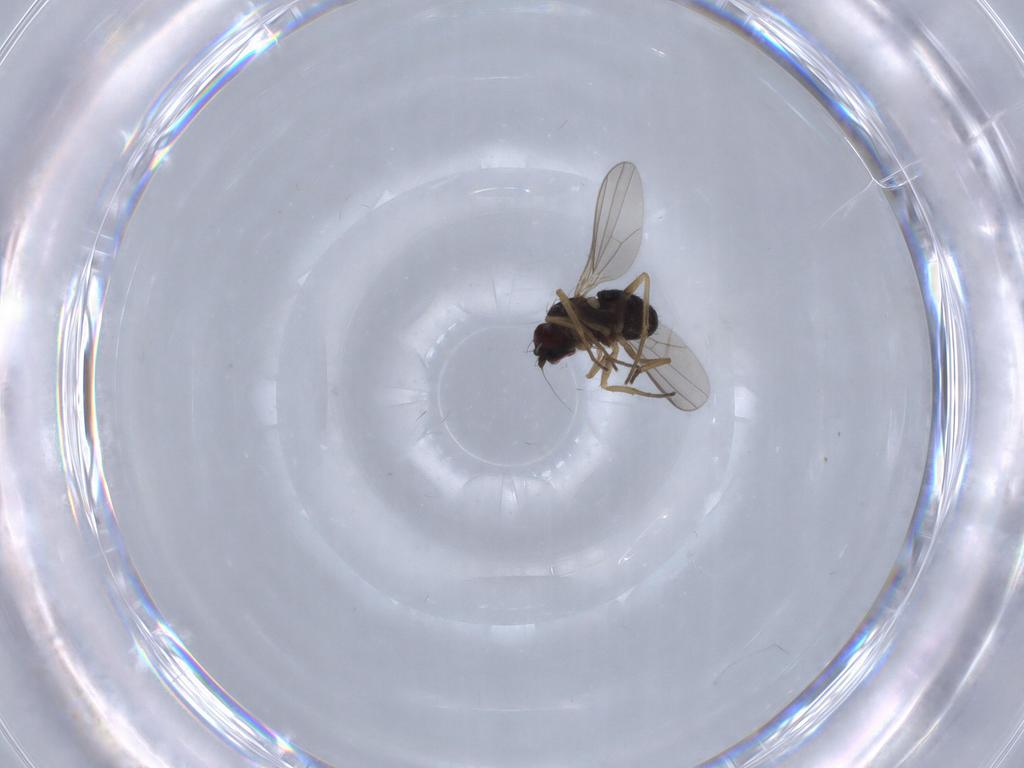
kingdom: Animalia
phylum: Arthropoda
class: Insecta
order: Diptera
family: Dolichopodidae
